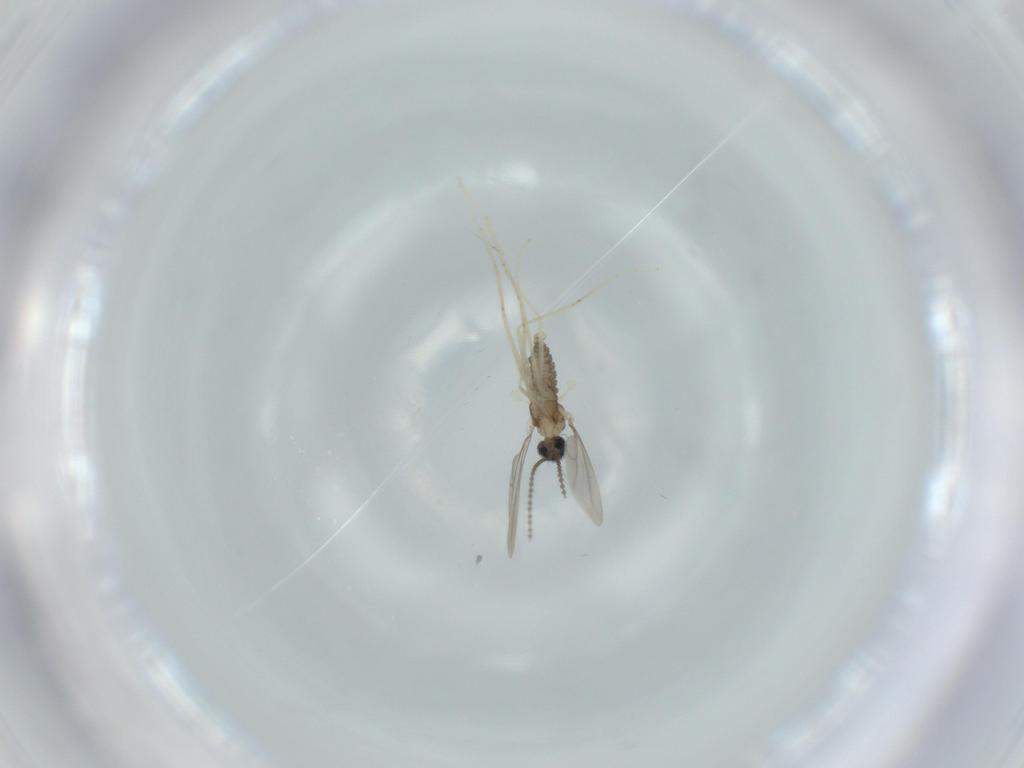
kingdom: Animalia
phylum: Arthropoda
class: Insecta
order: Diptera
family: Cecidomyiidae
